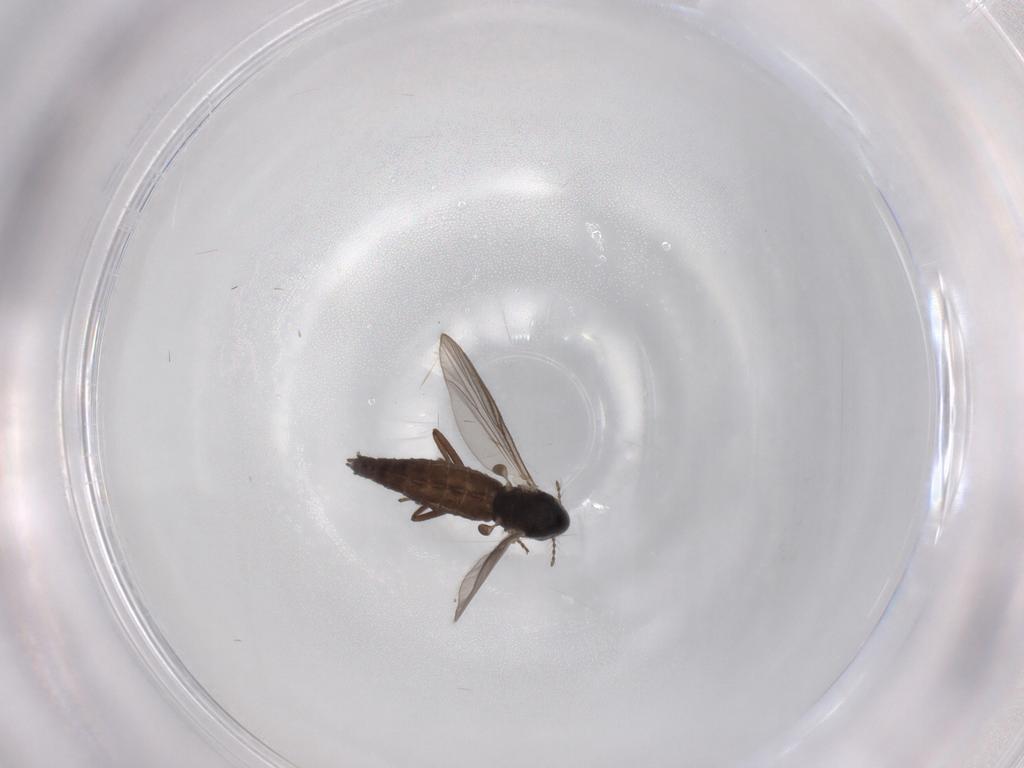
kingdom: Animalia
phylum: Arthropoda
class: Insecta
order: Diptera
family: Chironomidae
